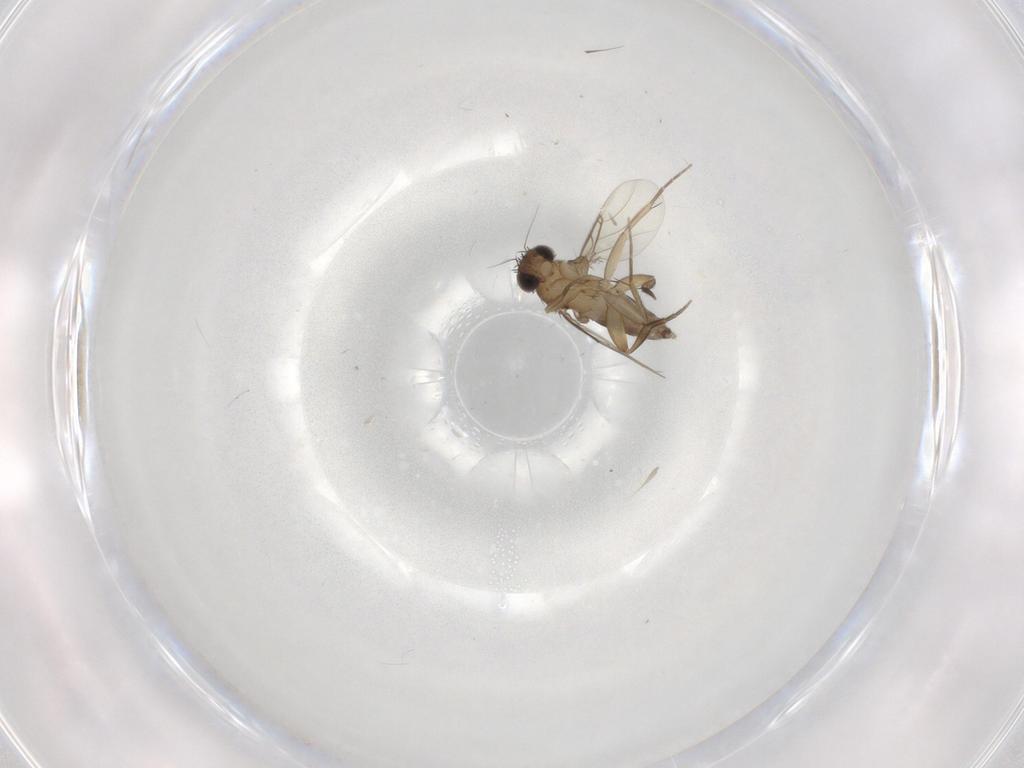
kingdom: Animalia
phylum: Arthropoda
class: Insecta
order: Diptera
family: Phoridae
